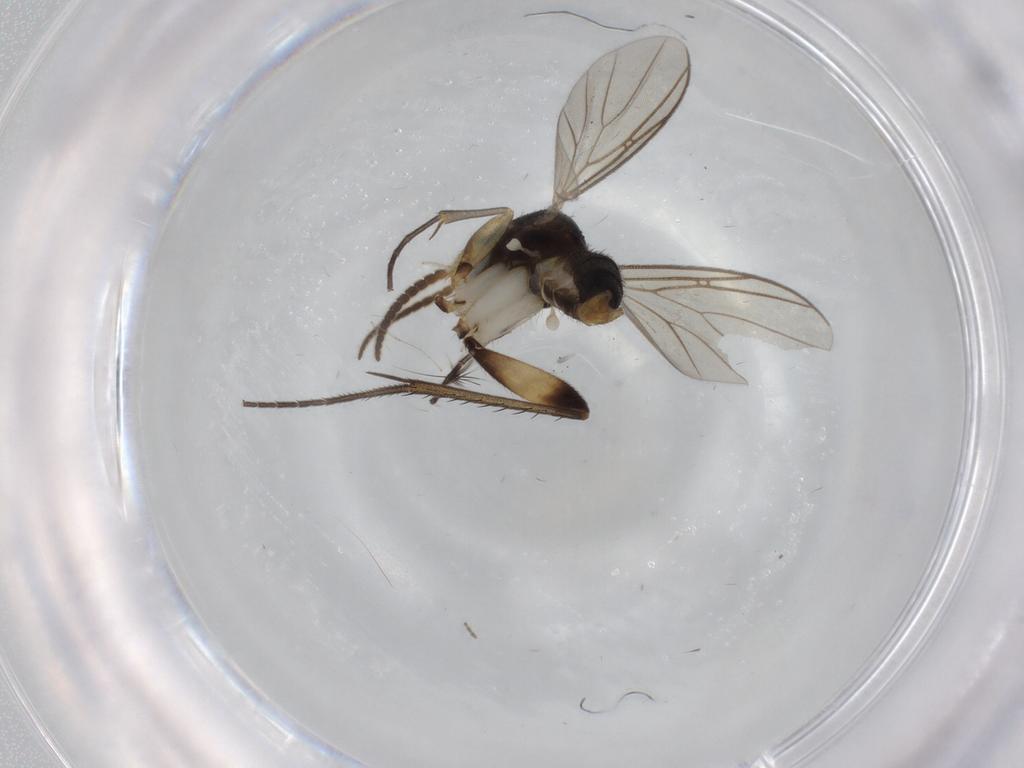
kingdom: Animalia
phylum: Arthropoda
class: Insecta
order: Diptera
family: Mycetophilidae
